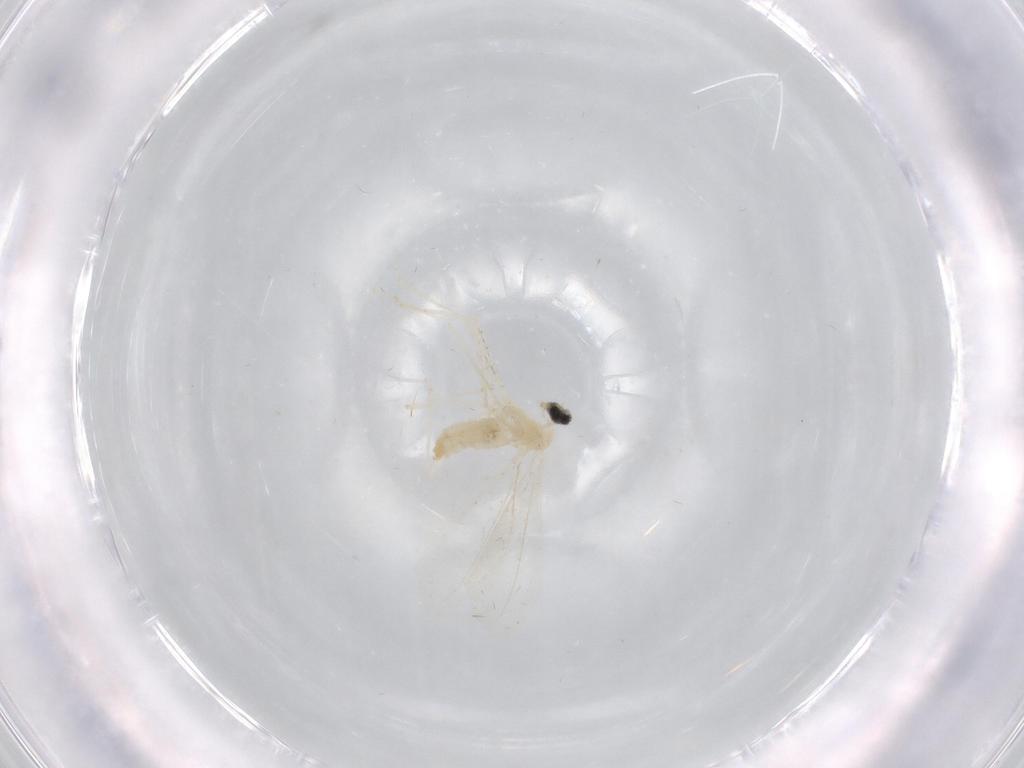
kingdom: Animalia
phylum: Arthropoda
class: Insecta
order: Diptera
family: Cecidomyiidae
